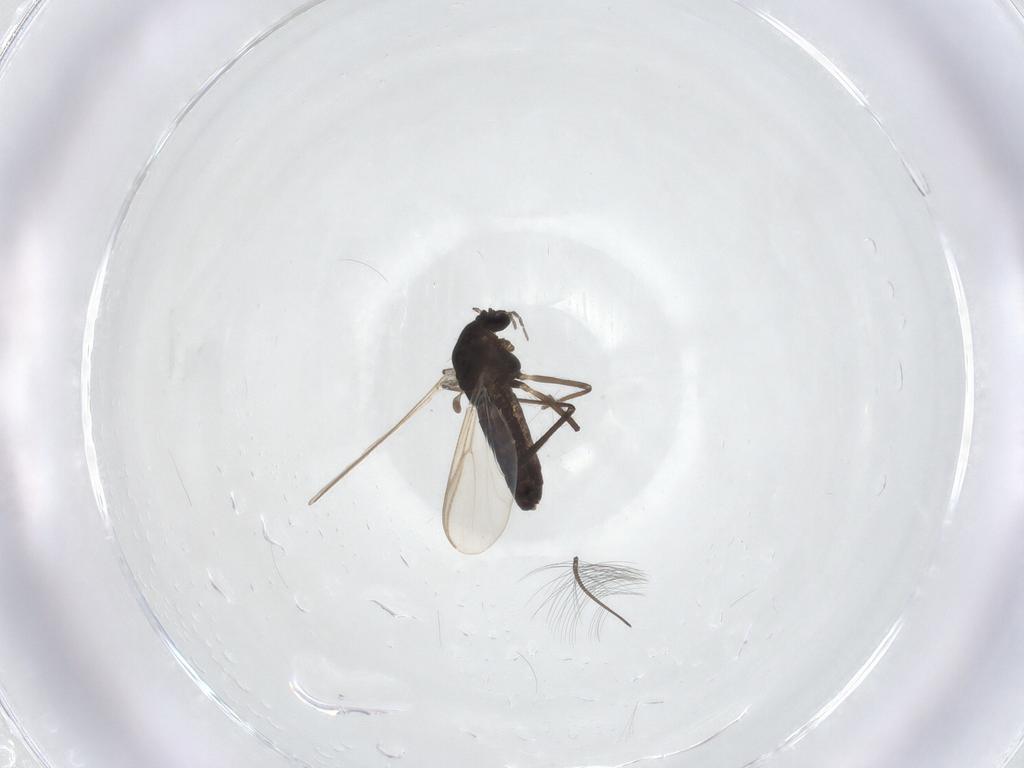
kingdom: Animalia
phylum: Arthropoda
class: Insecta
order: Diptera
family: Chironomidae
